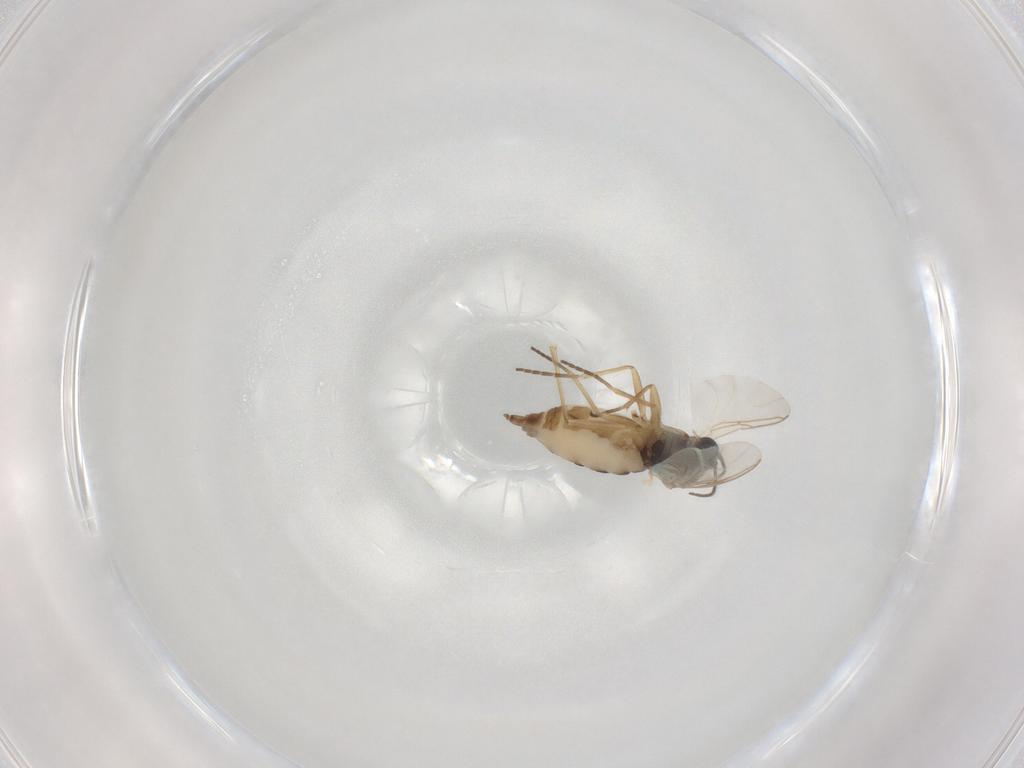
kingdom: Animalia
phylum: Arthropoda
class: Insecta
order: Diptera
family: Sciaridae
